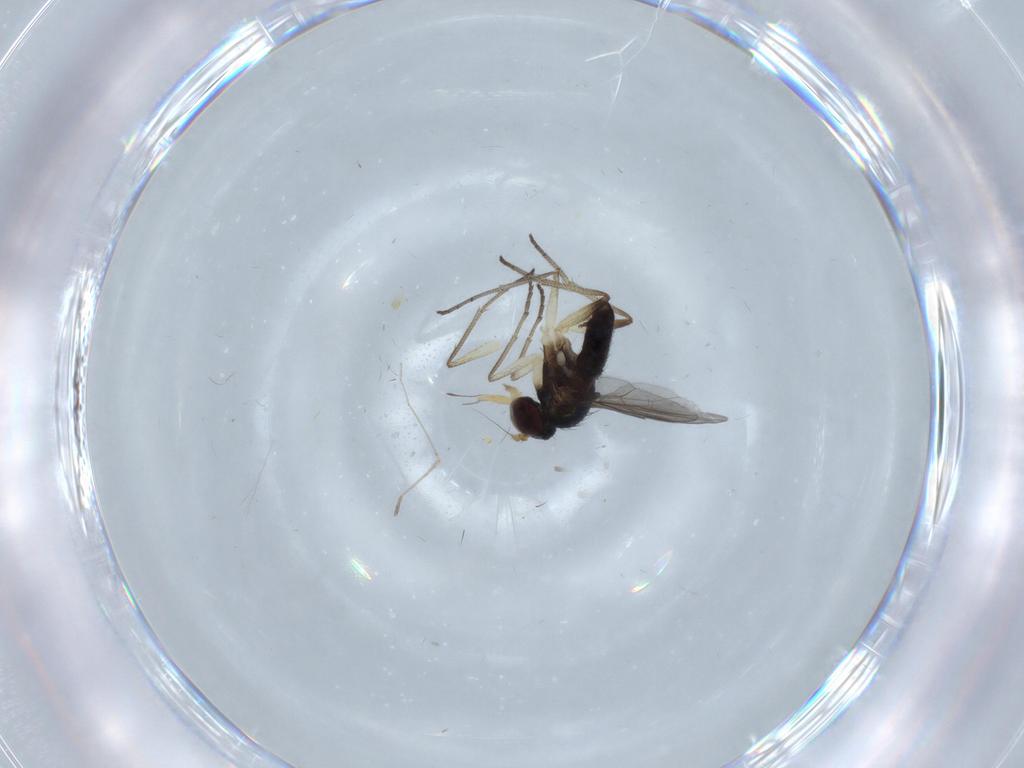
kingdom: Animalia
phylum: Arthropoda
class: Insecta
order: Diptera
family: Dolichopodidae
